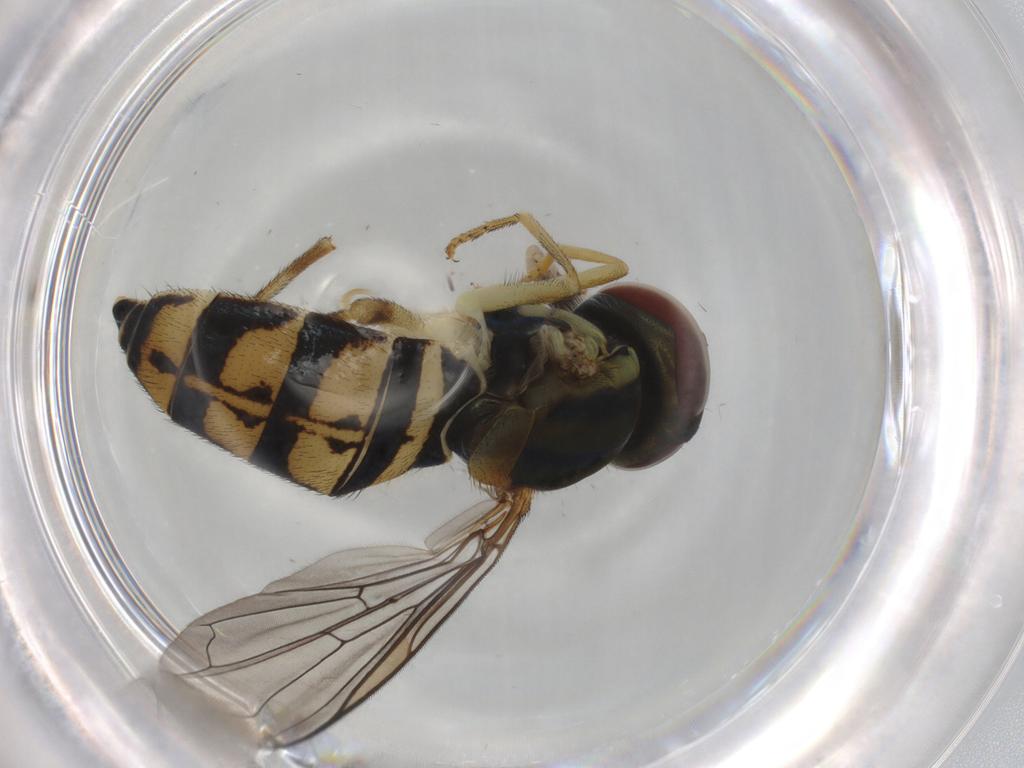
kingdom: Animalia
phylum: Arthropoda
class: Insecta
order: Diptera
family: Syrphidae
